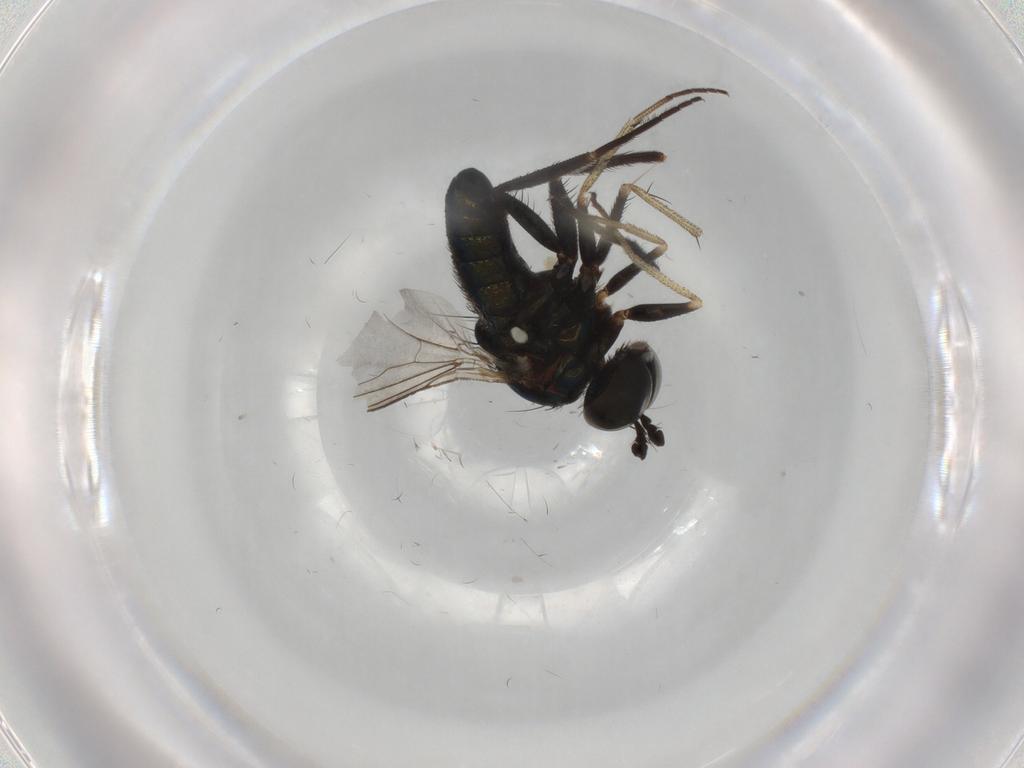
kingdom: Animalia
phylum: Arthropoda
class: Insecta
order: Diptera
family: Dolichopodidae
